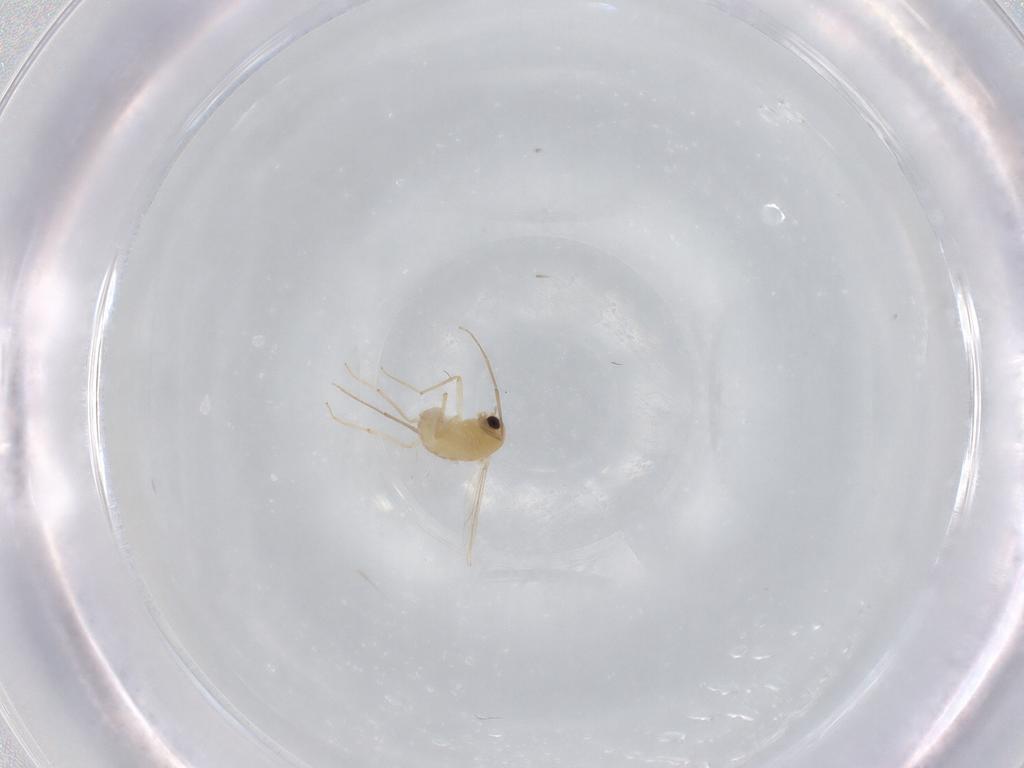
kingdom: Animalia
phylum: Arthropoda
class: Insecta
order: Diptera
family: Chironomidae
